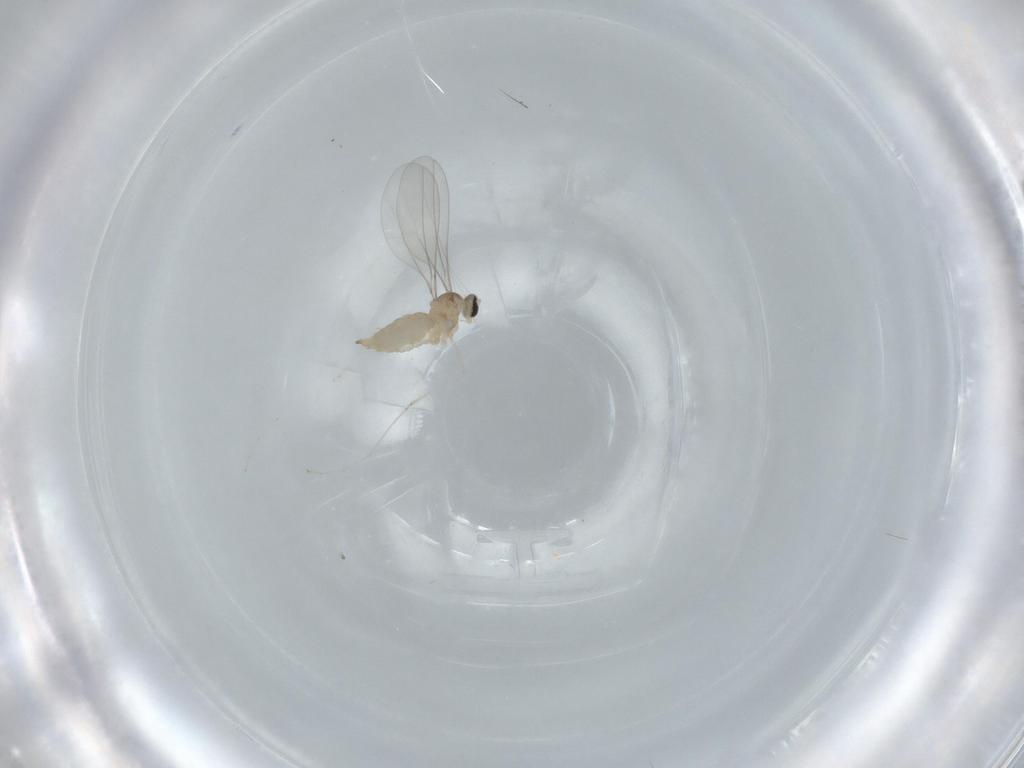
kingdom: Animalia
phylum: Arthropoda
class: Insecta
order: Diptera
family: Cecidomyiidae
